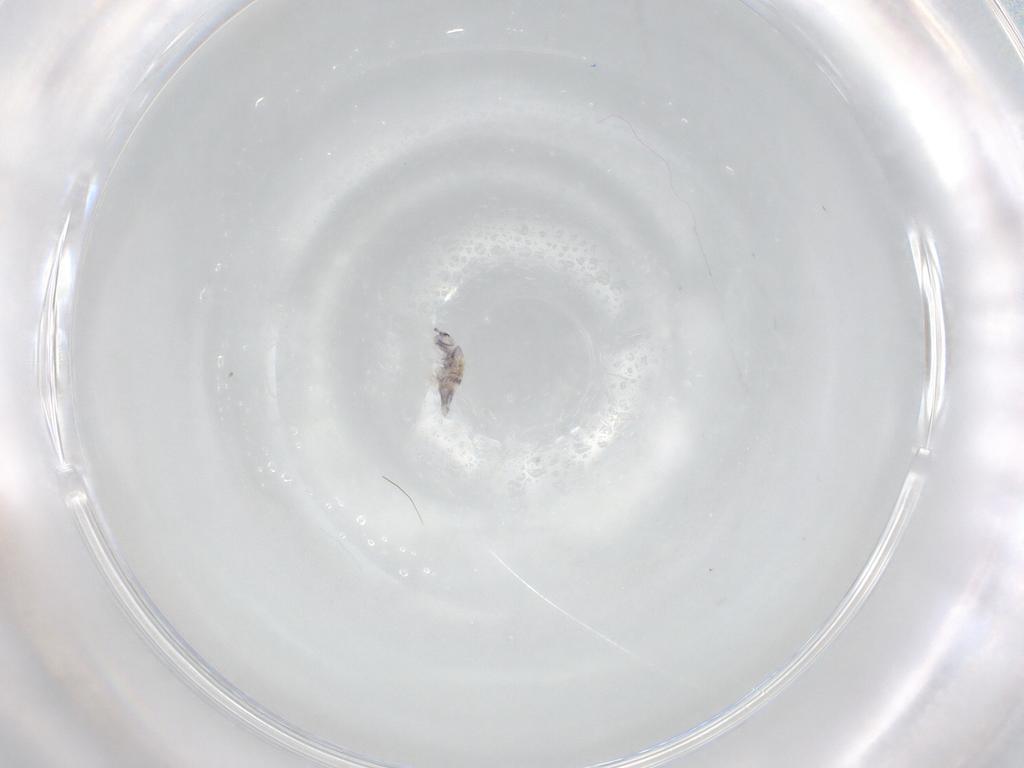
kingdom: Animalia
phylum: Arthropoda
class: Collembola
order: Entomobryomorpha
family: Entomobryidae
